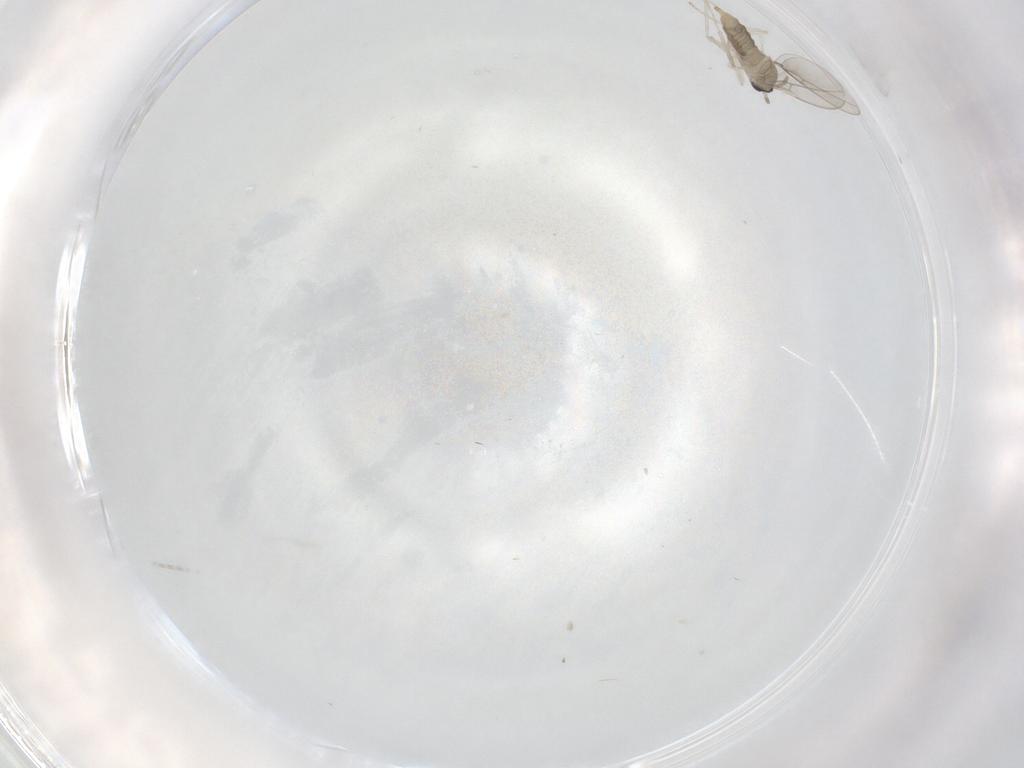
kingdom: Animalia
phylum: Arthropoda
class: Insecta
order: Diptera
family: Cecidomyiidae
